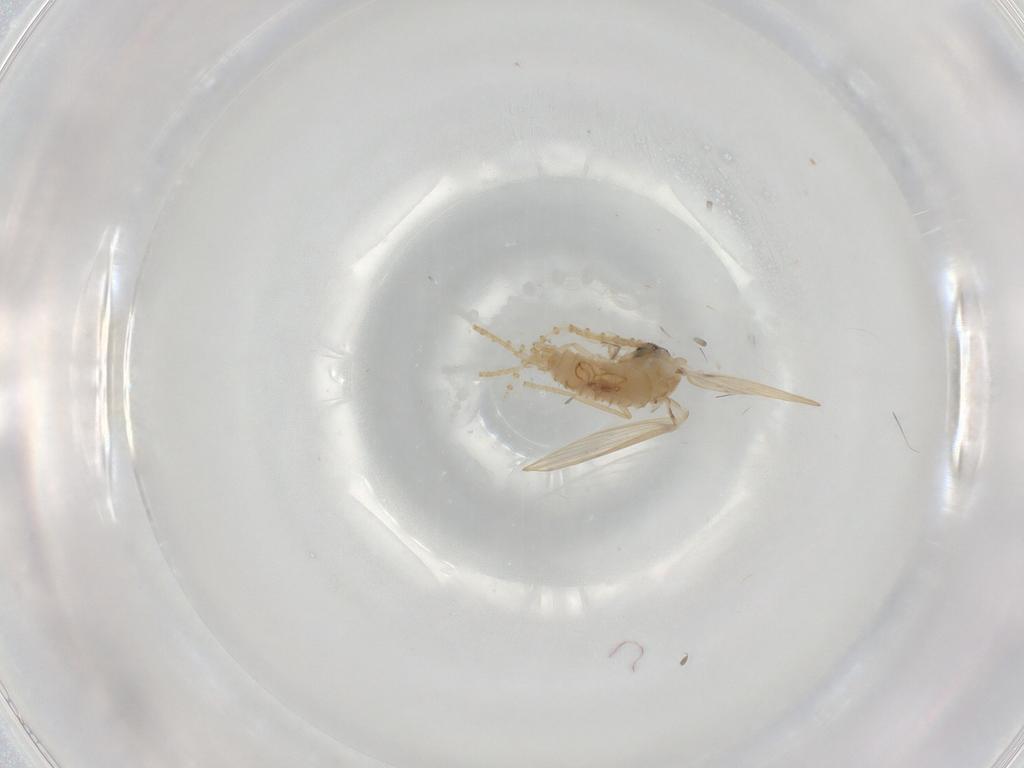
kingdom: Animalia
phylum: Arthropoda
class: Insecta
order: Diptera
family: Psychodidae
